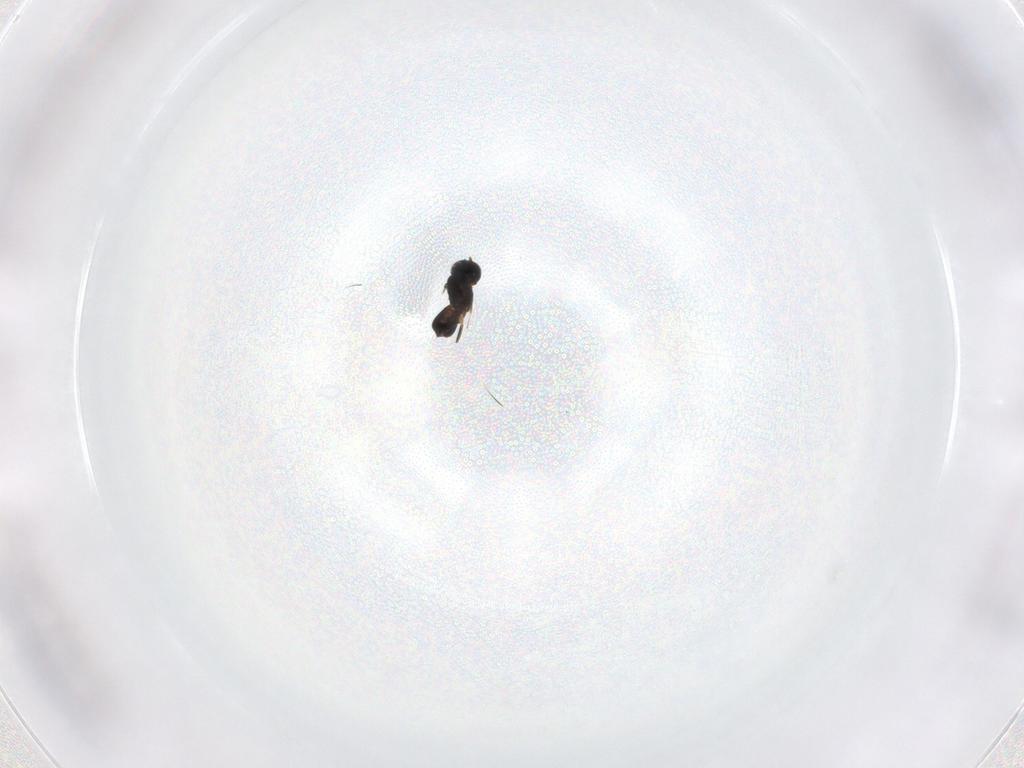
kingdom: Animalia
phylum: Arthropoda
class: Insecta
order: Hymenoptera
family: Scelionidae
